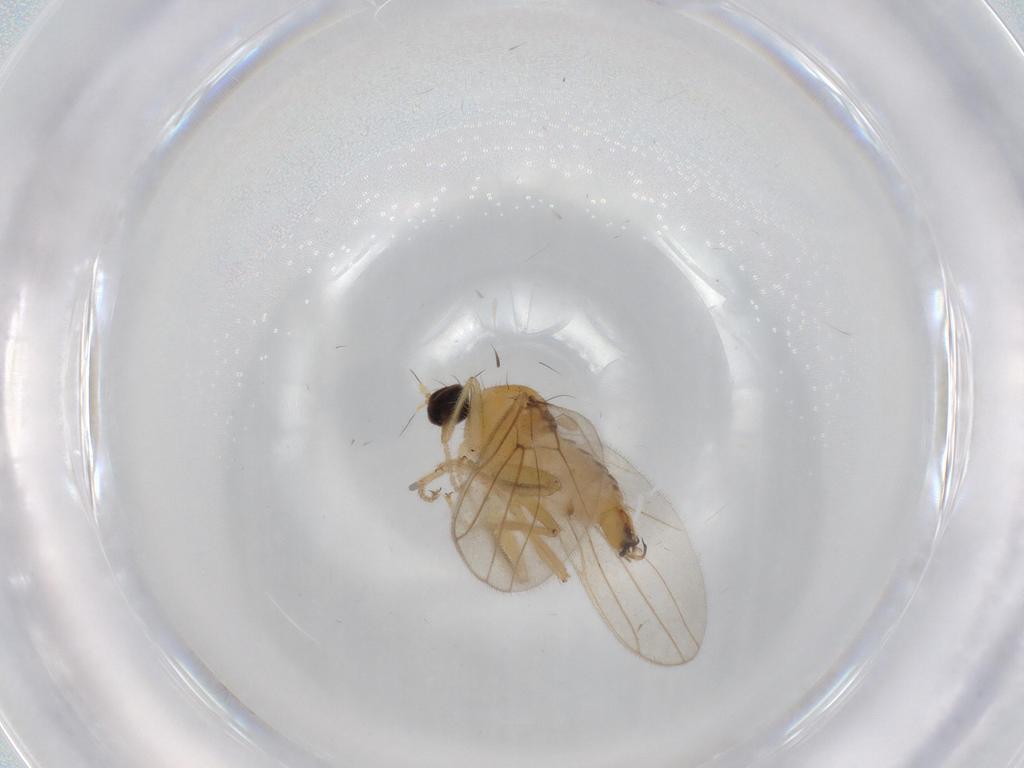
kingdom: Animalia
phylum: Arthropoda
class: Insecta
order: Diptera
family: Hybotidae
